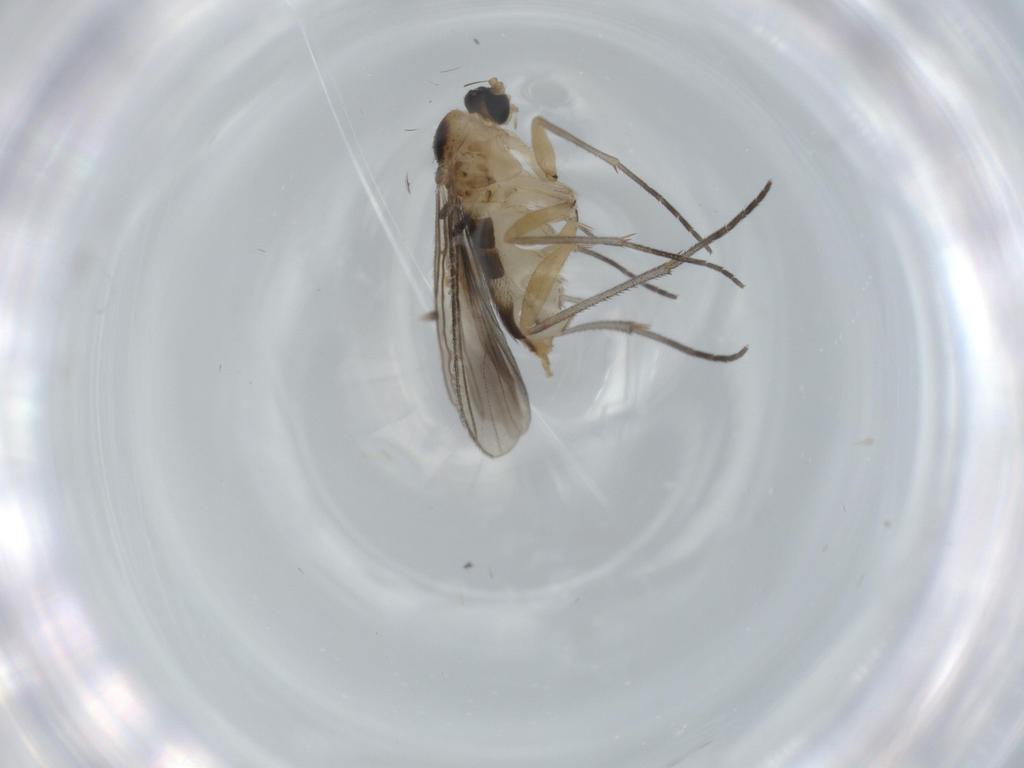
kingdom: Animalia
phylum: Arthropoda
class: Insecta
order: Diptera
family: Sciaridae
